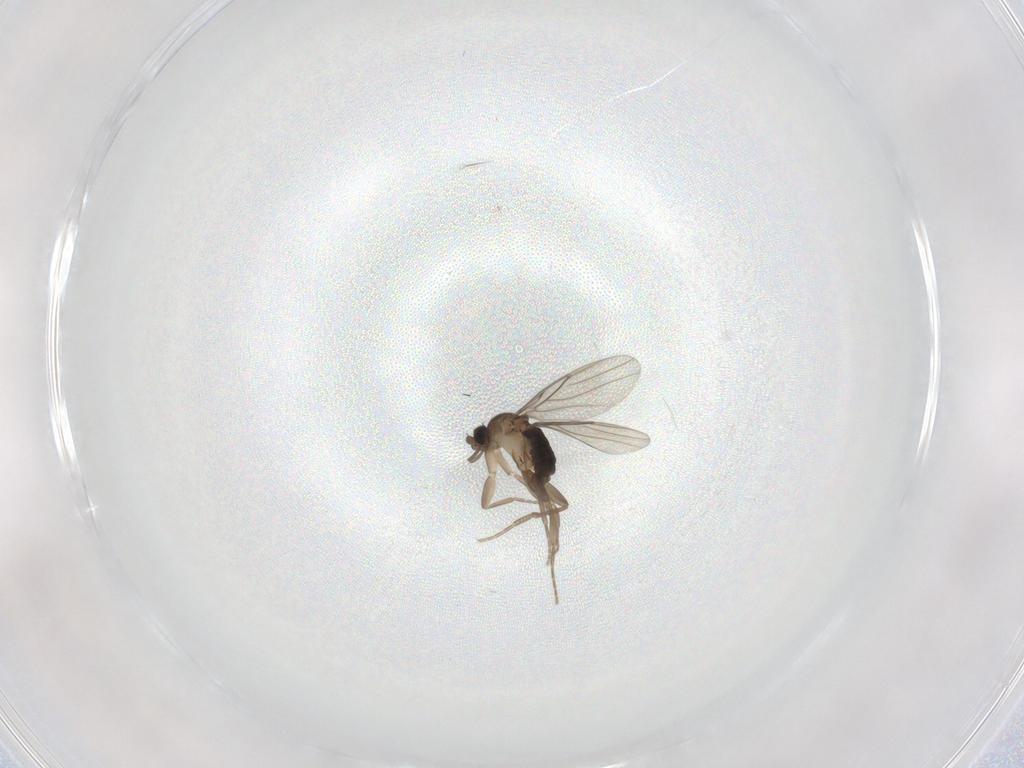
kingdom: Animalia
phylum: Arthropoda
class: Insecta
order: Diptera
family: Chironomidae
